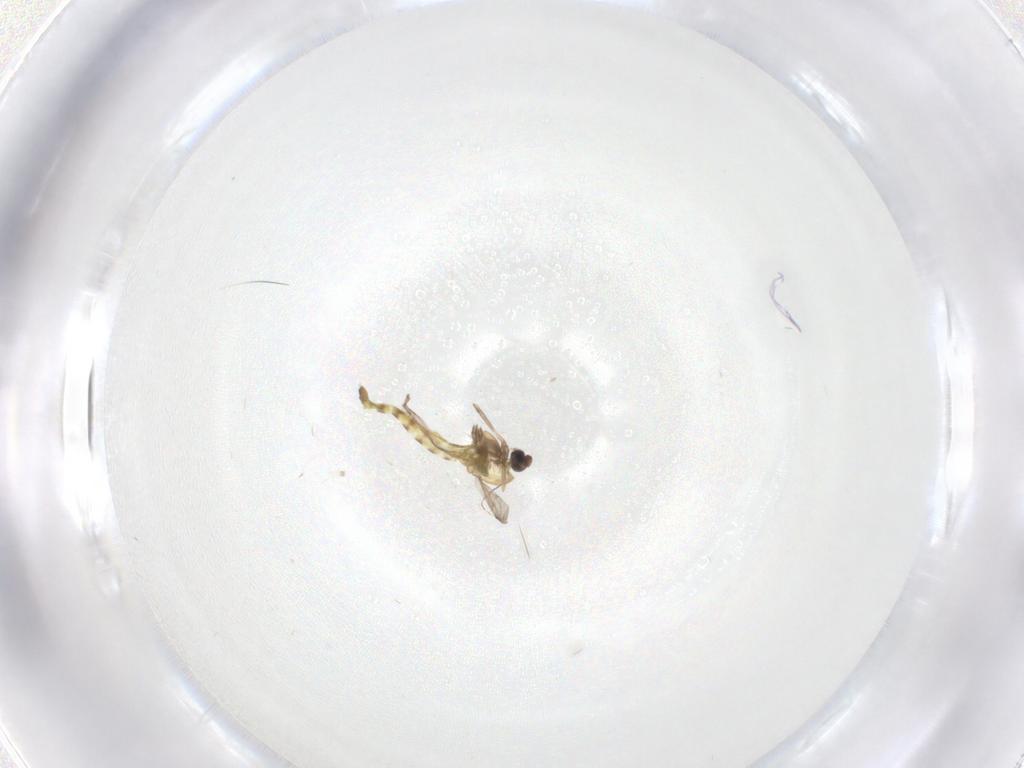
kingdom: Animalia
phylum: Arthropoda
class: Insecta
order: Diptera
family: Chironomidae
